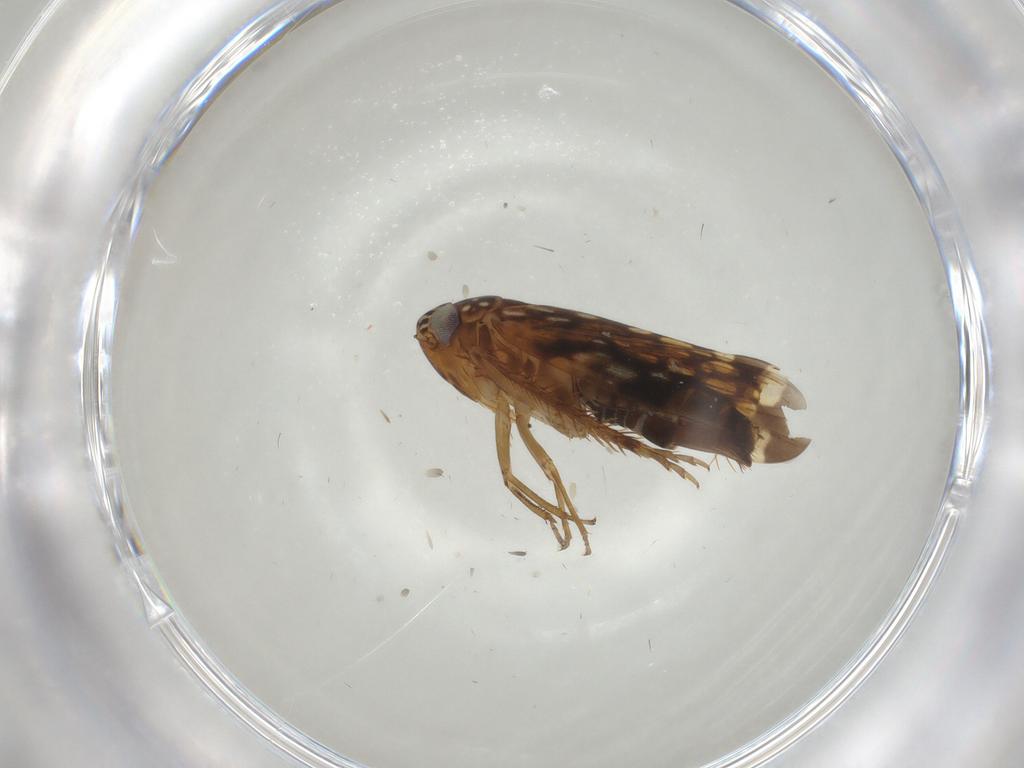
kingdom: Animalia
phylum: Arthropoda
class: Insecta
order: Hemiptera
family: Cicadellidae
